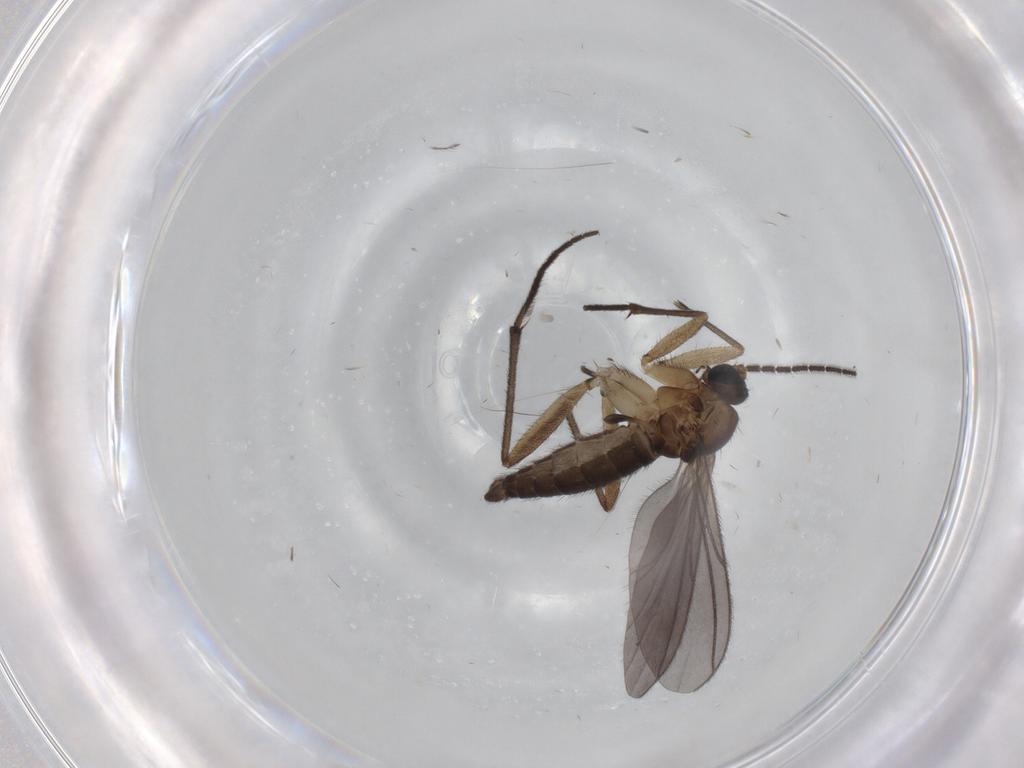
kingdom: Animalia
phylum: Arthropoda
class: Insecta
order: Diptera
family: Sciaridae
